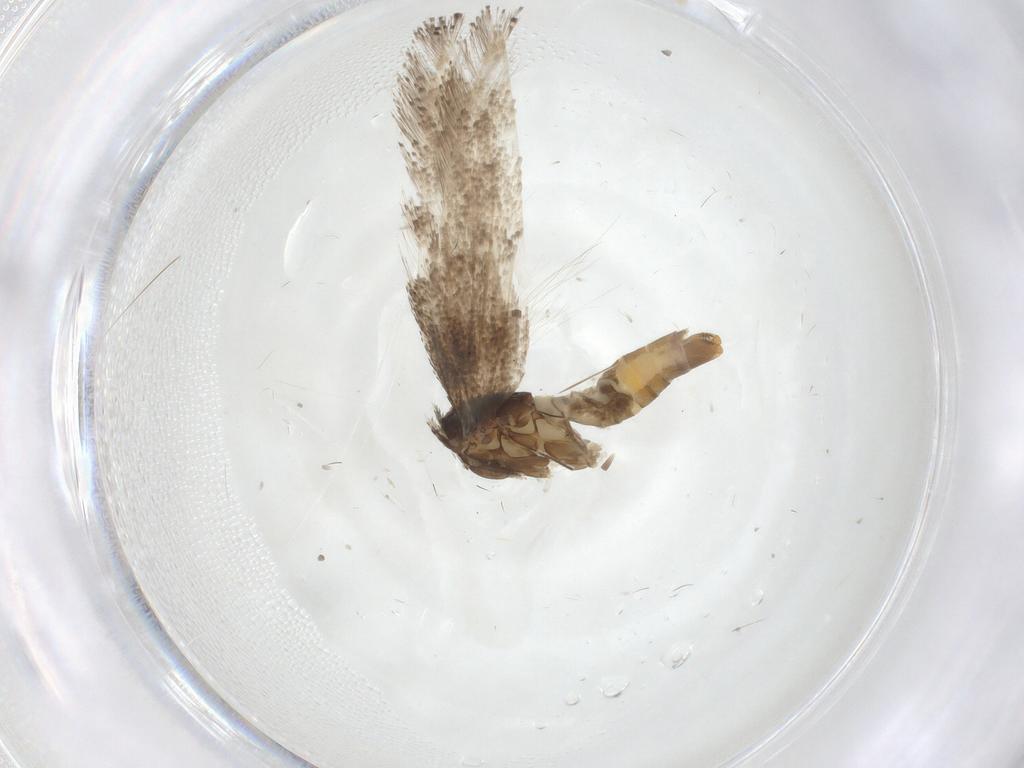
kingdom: Animalia
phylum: Arthropoda
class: Insecta
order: Lepidoptera
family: Douglasiidae
